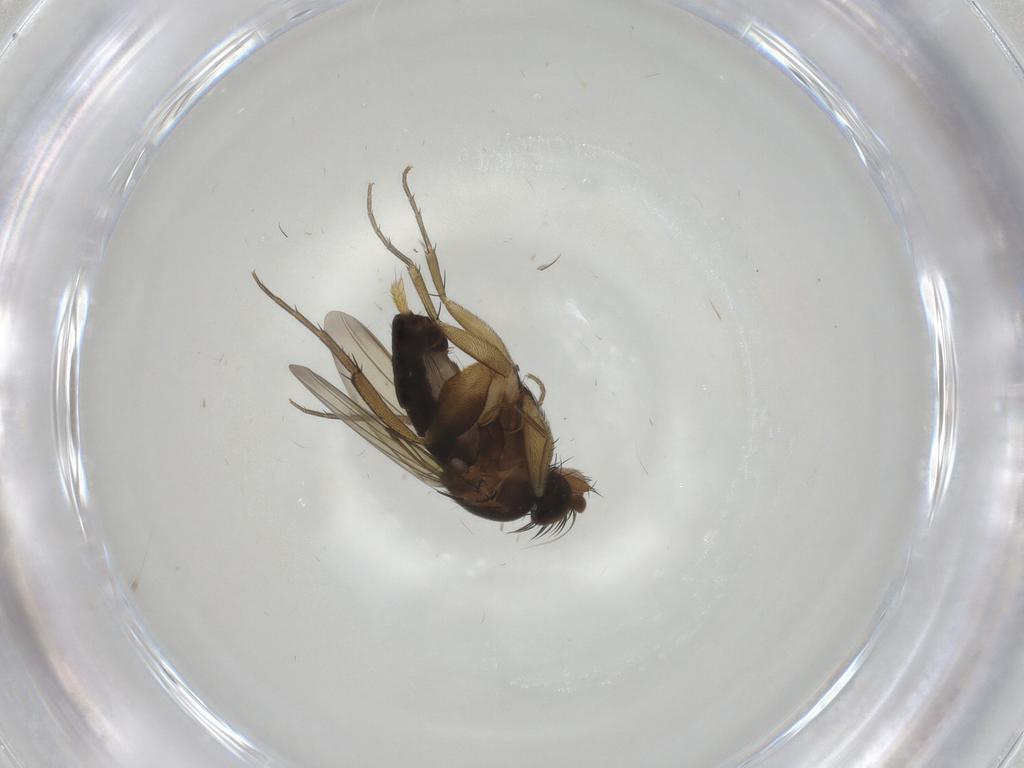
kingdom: Animalia
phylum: Arthropoda
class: Insecta
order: Diptera
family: Phoridae
